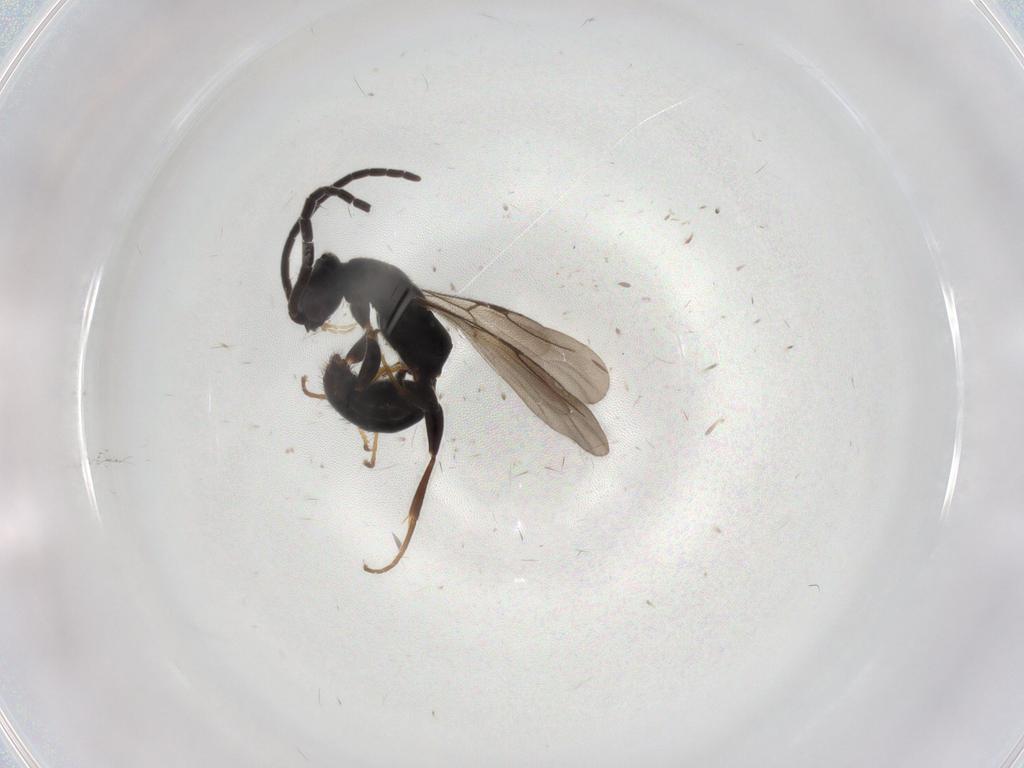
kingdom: Animalia
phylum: Arthropoda
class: Insecta
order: Hymenoptera
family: Bethylidae
